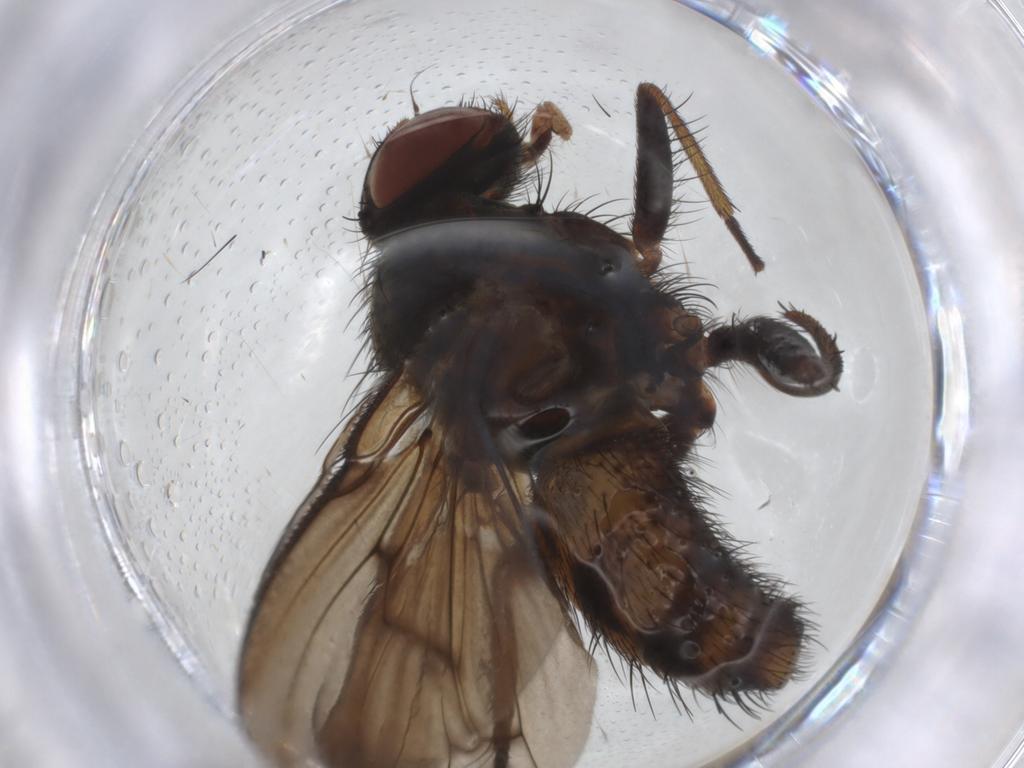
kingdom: Animalia
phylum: Arthropoda
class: Insecta
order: Diptera
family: Muscidae
